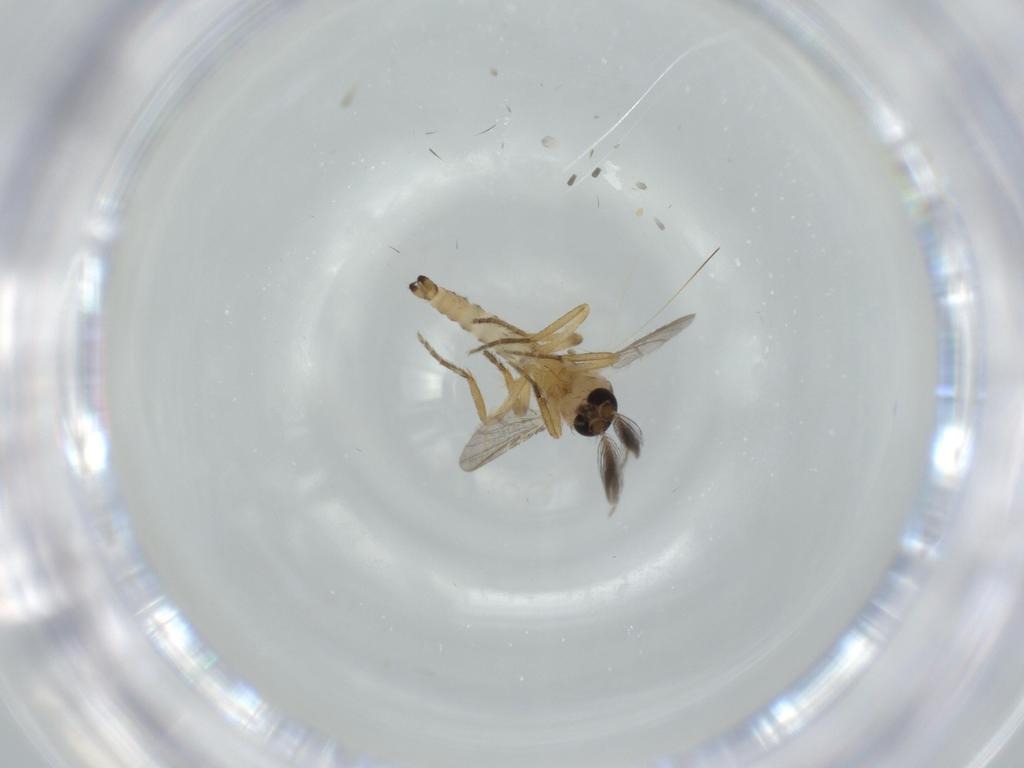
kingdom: Animalia
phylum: Arthropoda
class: Insecta
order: Diptera
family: Ceratopogonidae
